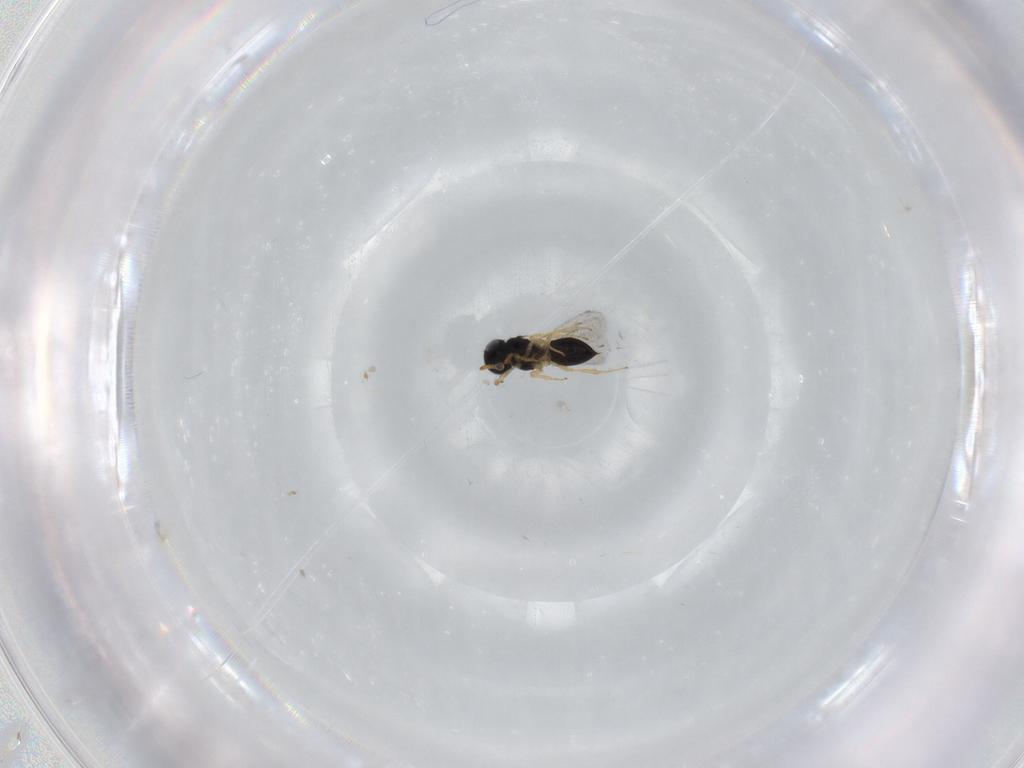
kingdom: Animalia
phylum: Arthropoda
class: Insecta
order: Hymenoptera
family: Scelionidae
